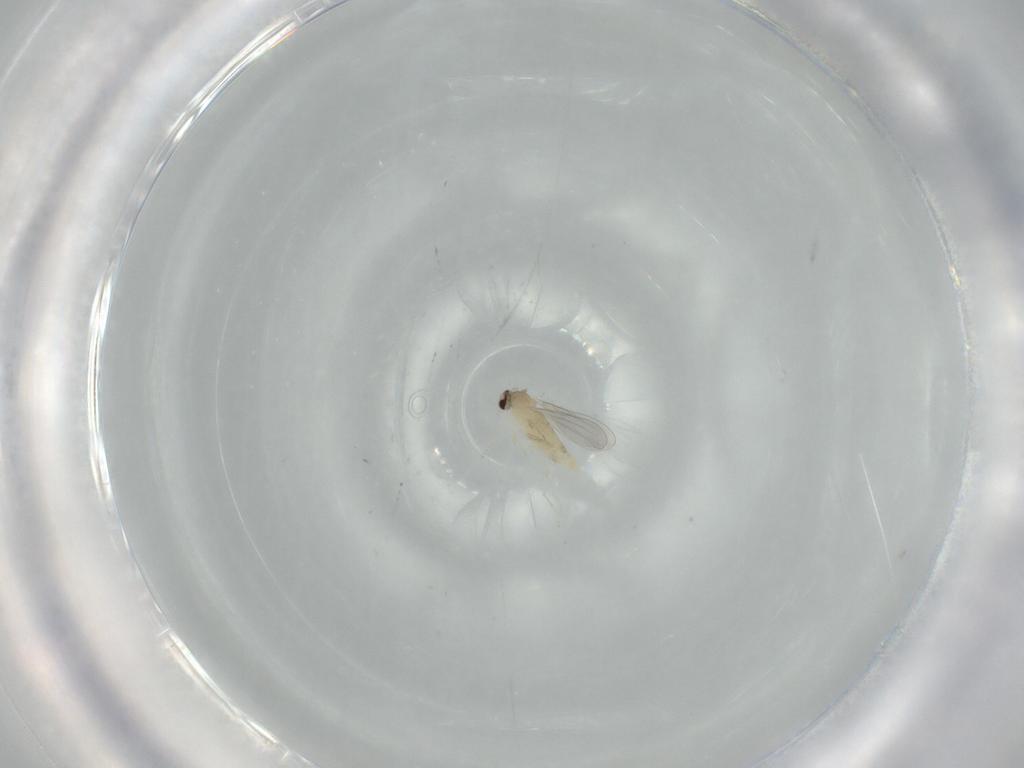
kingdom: Animalia
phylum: Arthropoda
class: Insecta
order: Diptera
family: Cecidomyiidae
